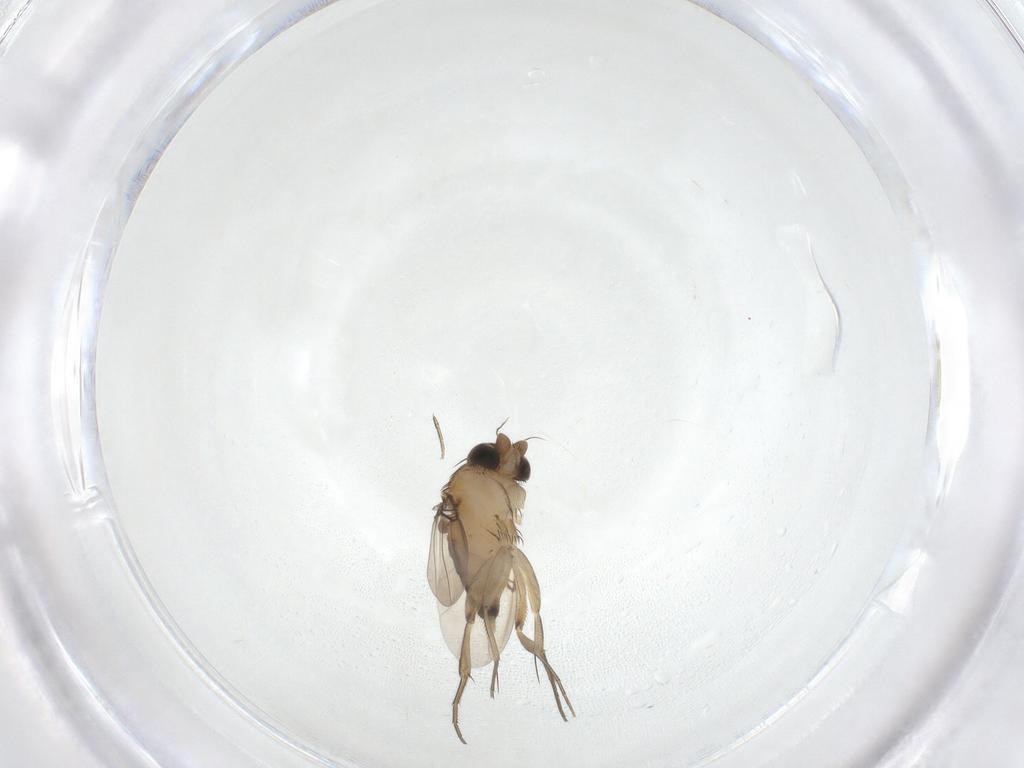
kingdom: Animalia
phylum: Arthropoda
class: Insecta
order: Diptera
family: Phoridae
